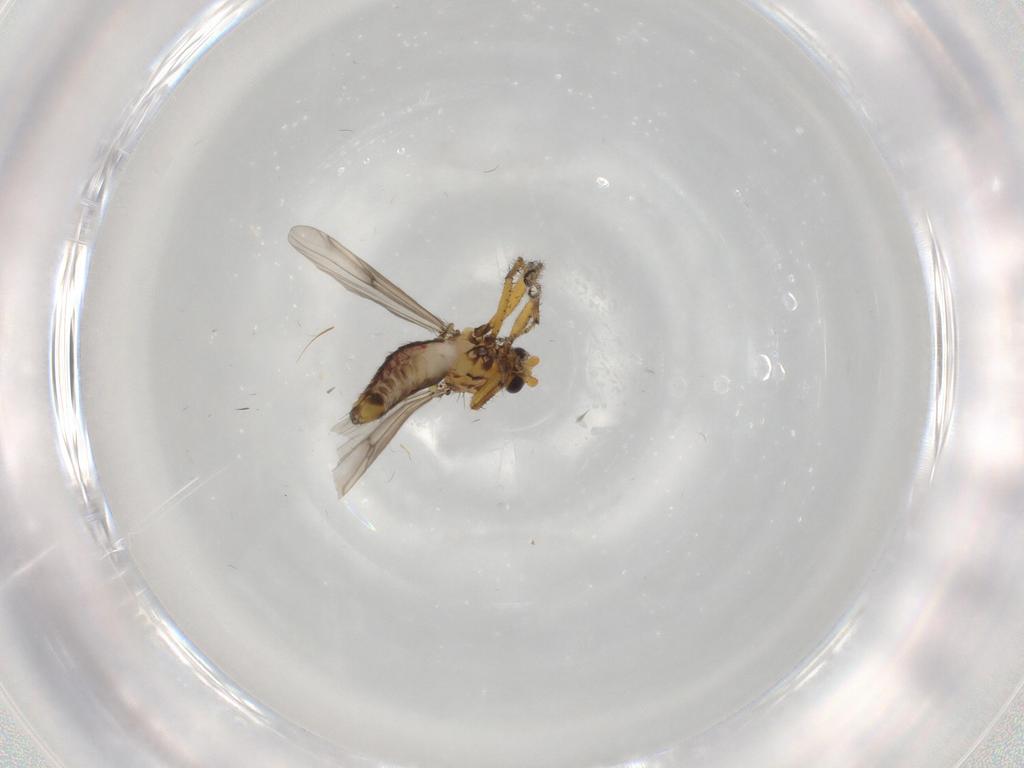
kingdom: Animalia
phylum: Arthropoda
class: Insecta
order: Diptera
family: Ceratopogonidae
